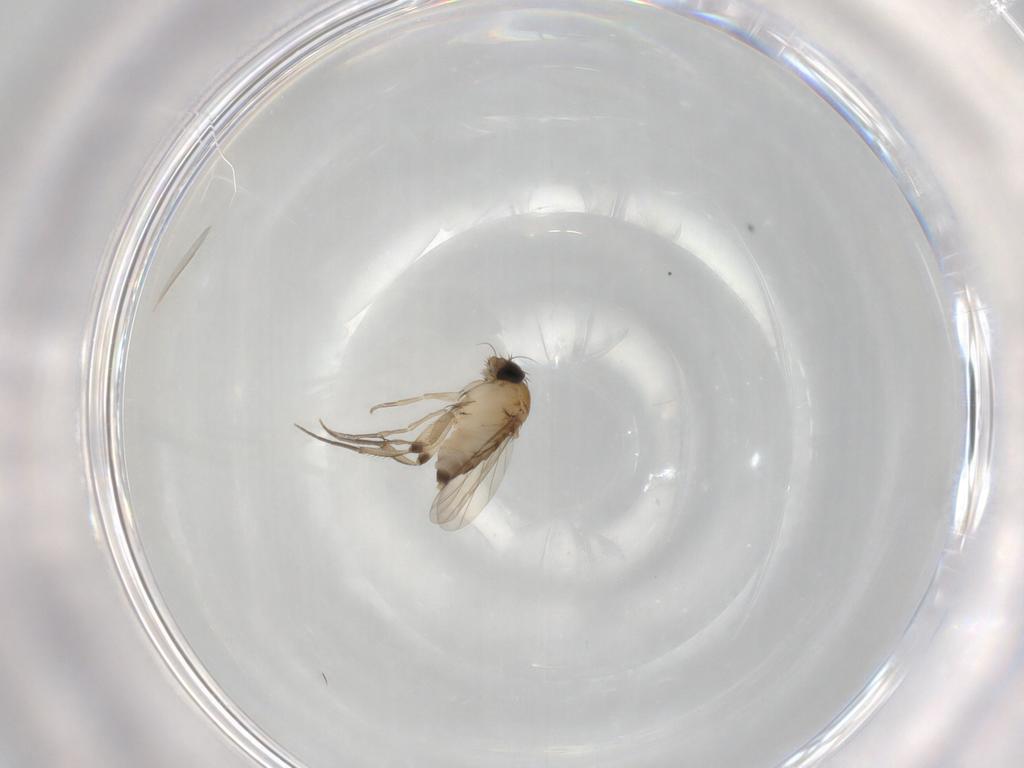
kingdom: Animalia
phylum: Arthropoda
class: Insecta
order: Diptera
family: Phoridae
